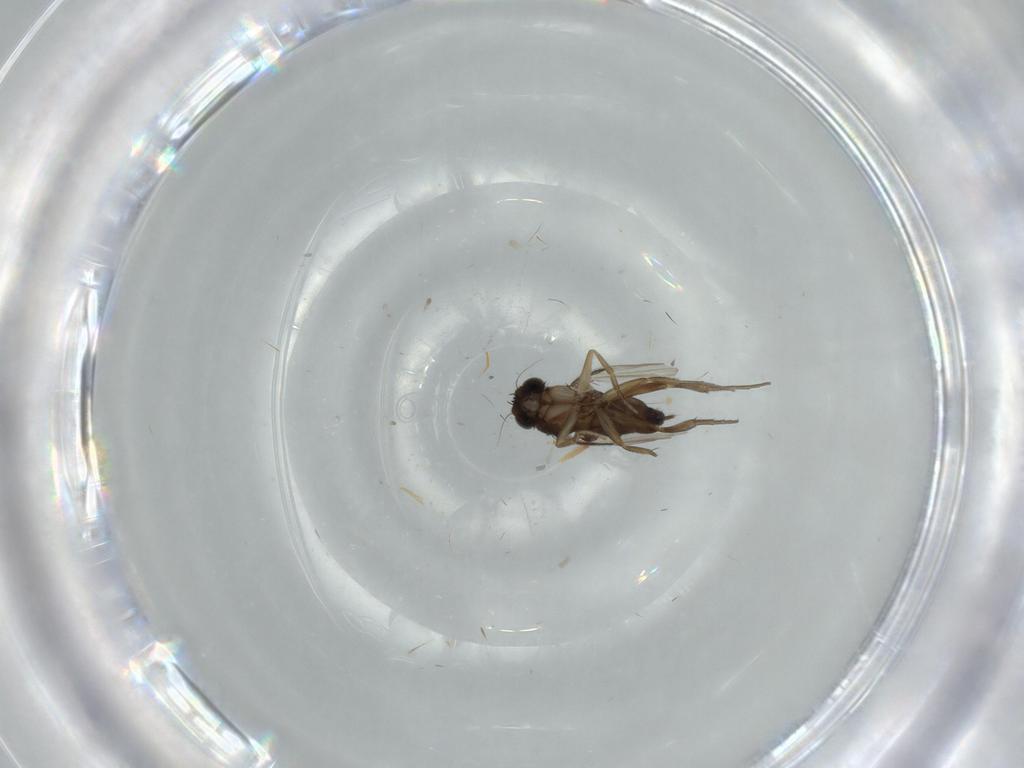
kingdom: Animalia
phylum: Arthropoda
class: Insecta
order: Diptera
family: Phoridae
